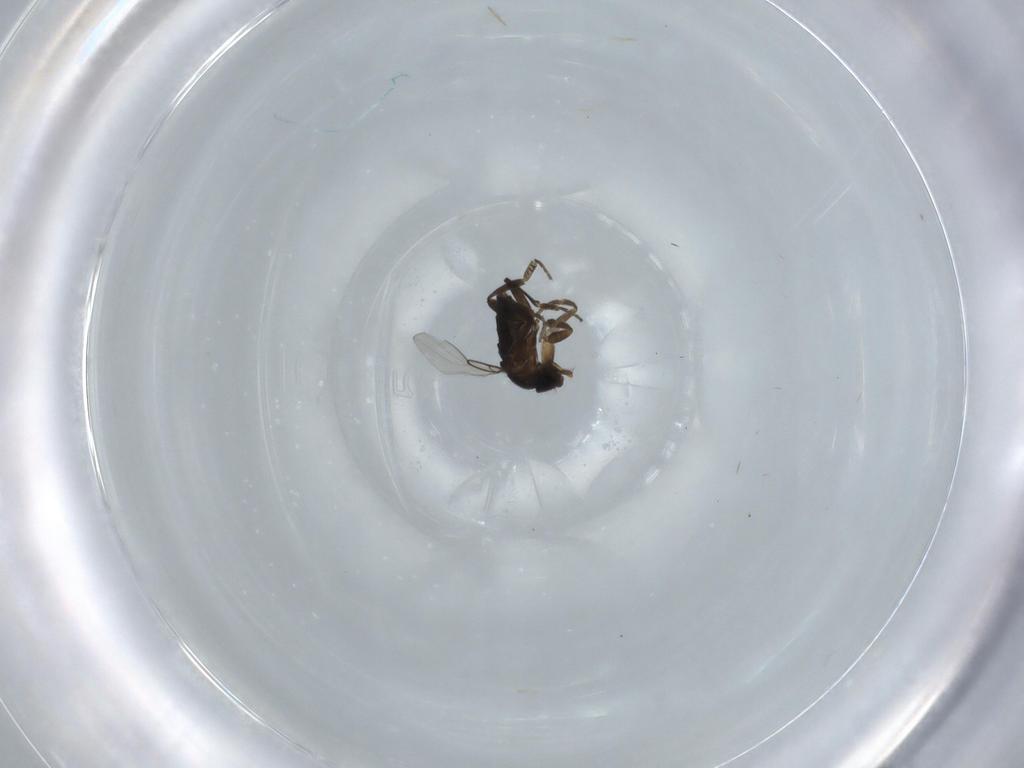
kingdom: Animalia
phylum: Arthropoda
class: Insecta
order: Diptera
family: Phoridae
